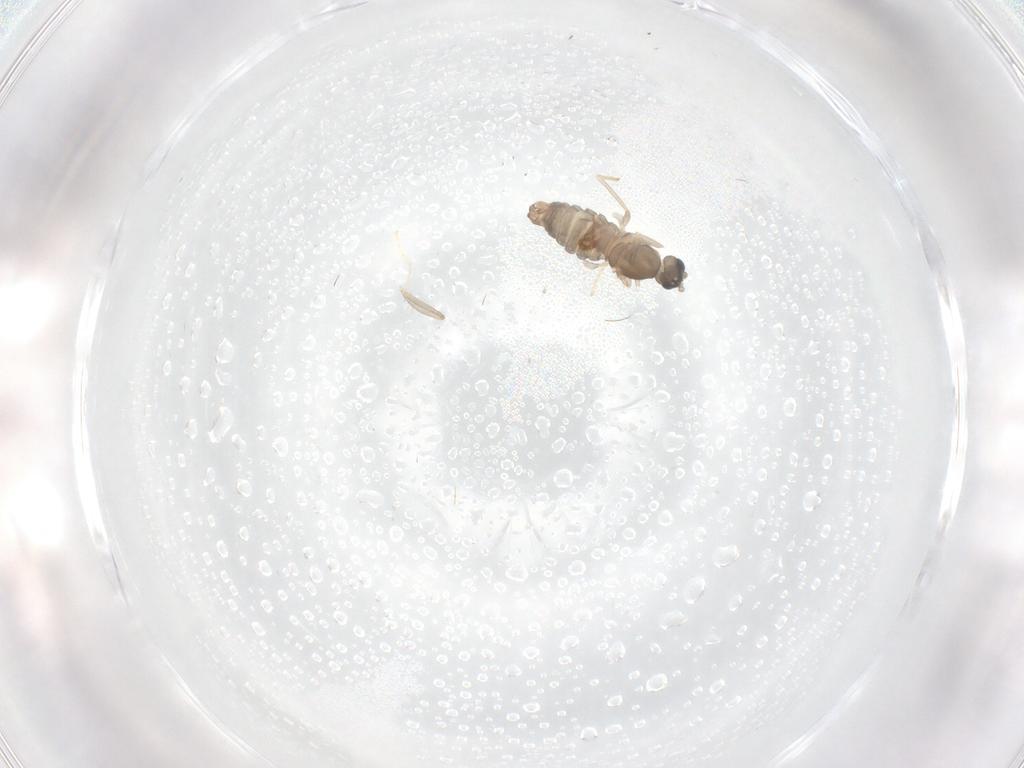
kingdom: Animalia
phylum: Arthropoda
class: Insecta
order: Diptera
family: Cecidomyiidae
